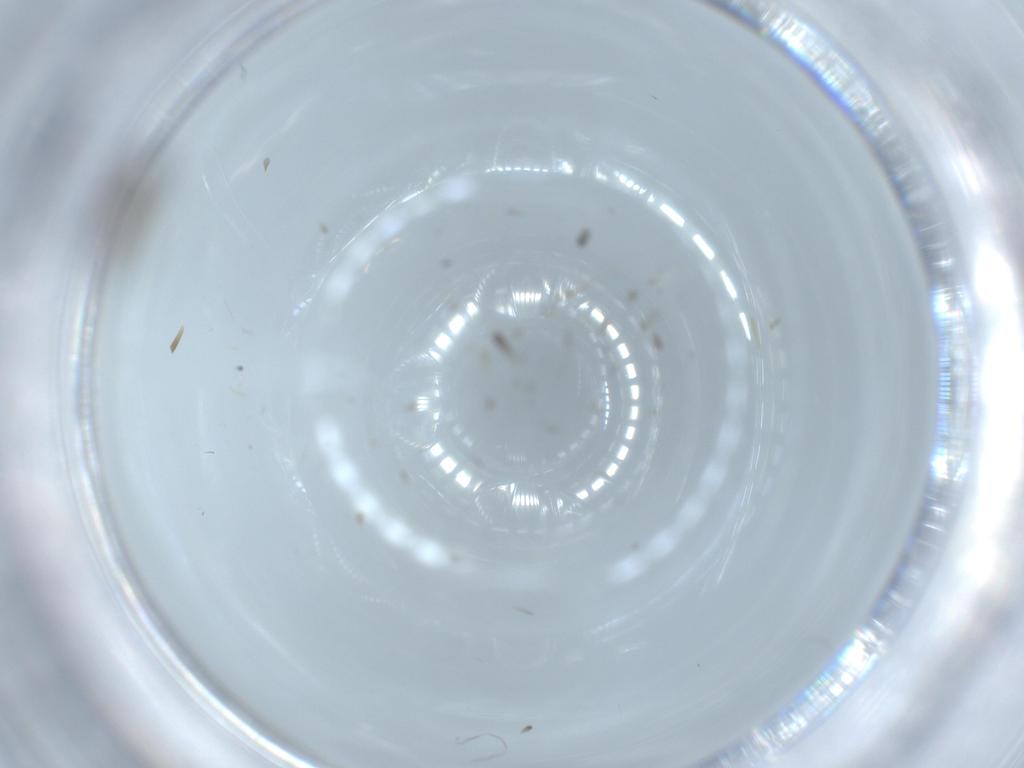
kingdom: Animalia
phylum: Arthropoda
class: Insecta
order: Diptera
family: Phoridae
